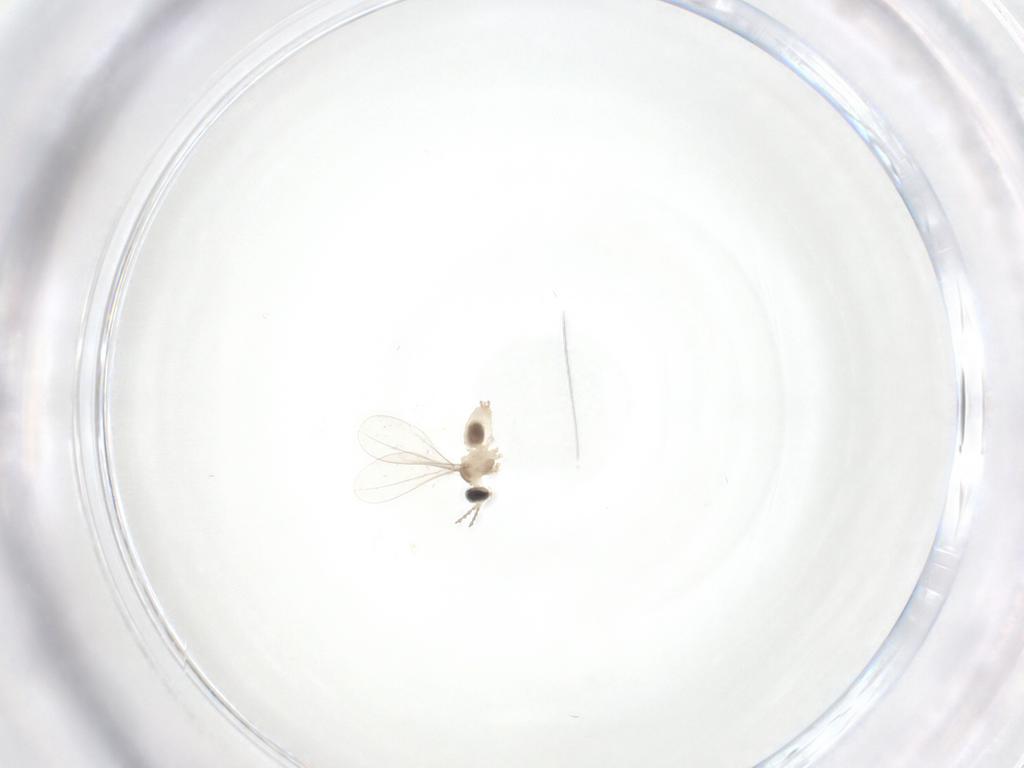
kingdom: Animalia
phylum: Arthropoda
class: Insecta
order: Diptera
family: Cecidomyiidae
